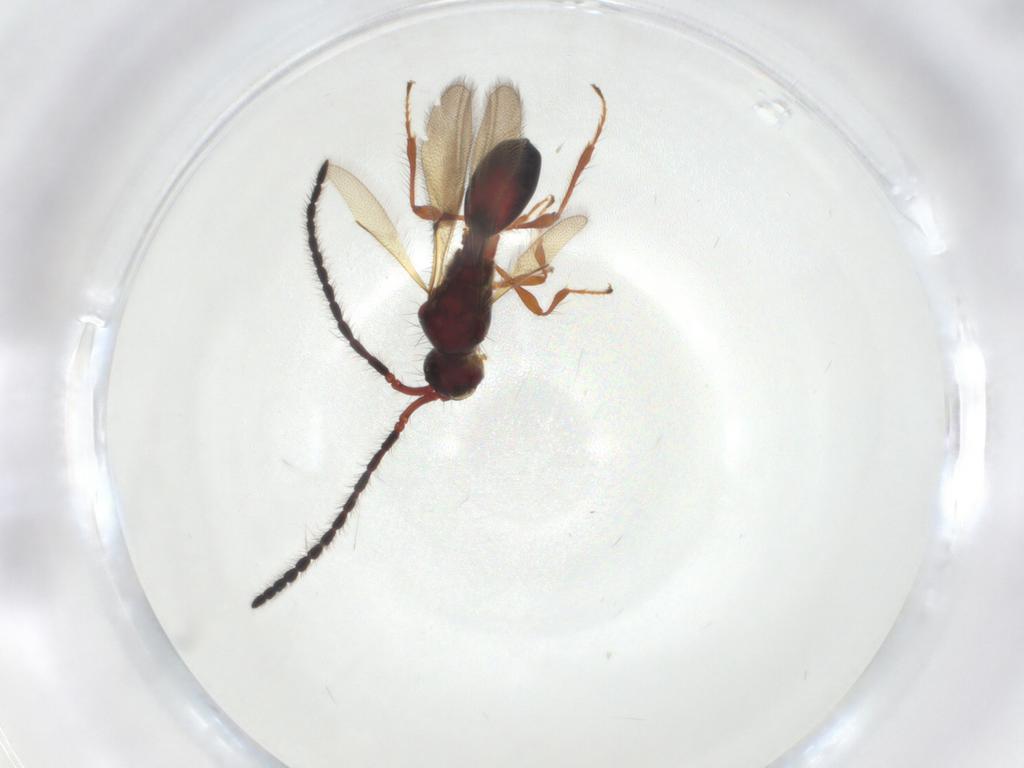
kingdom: Animalia
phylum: Arthropoda
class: Insecta
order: Hymenoptera
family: Diapriidae
